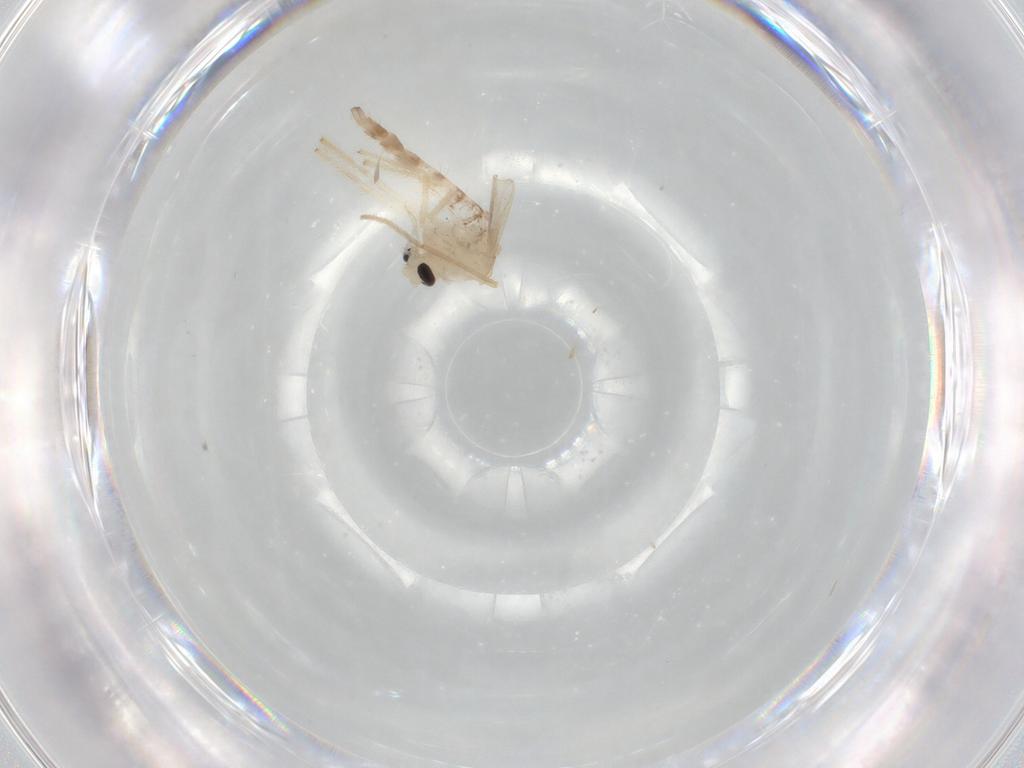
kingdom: Animalia
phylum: Arthropoda
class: Insecta
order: Diptera
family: Chironomidae
